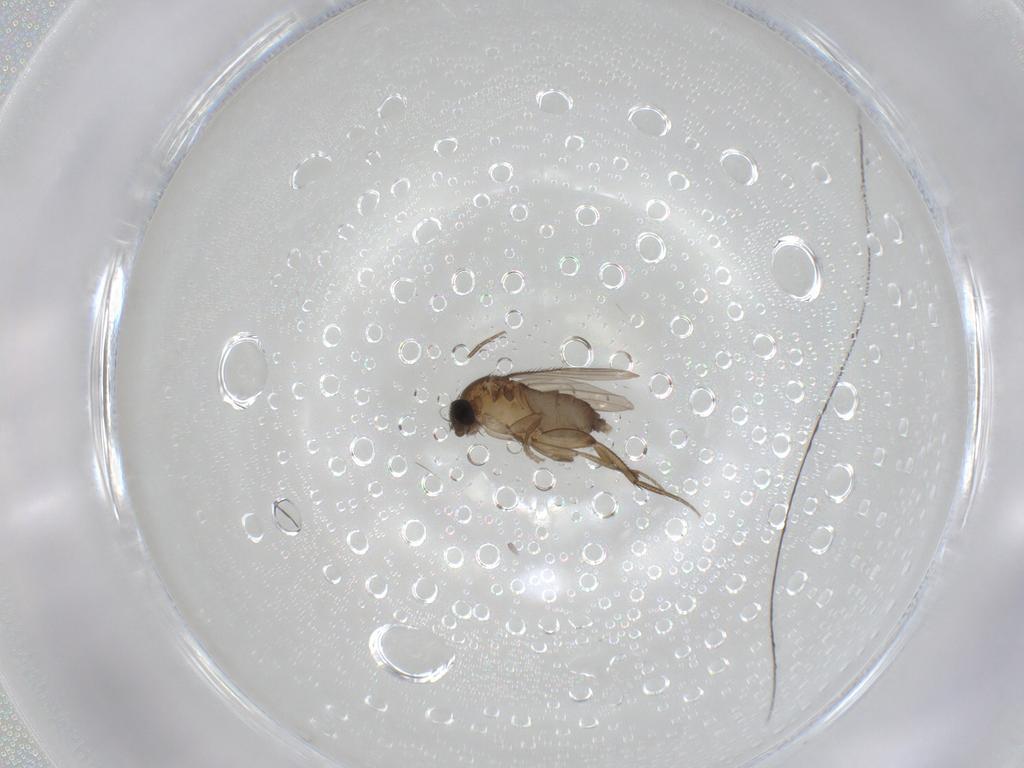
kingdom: Animalia
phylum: Arthropoda
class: Insecta
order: Diptera
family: Phoridae
